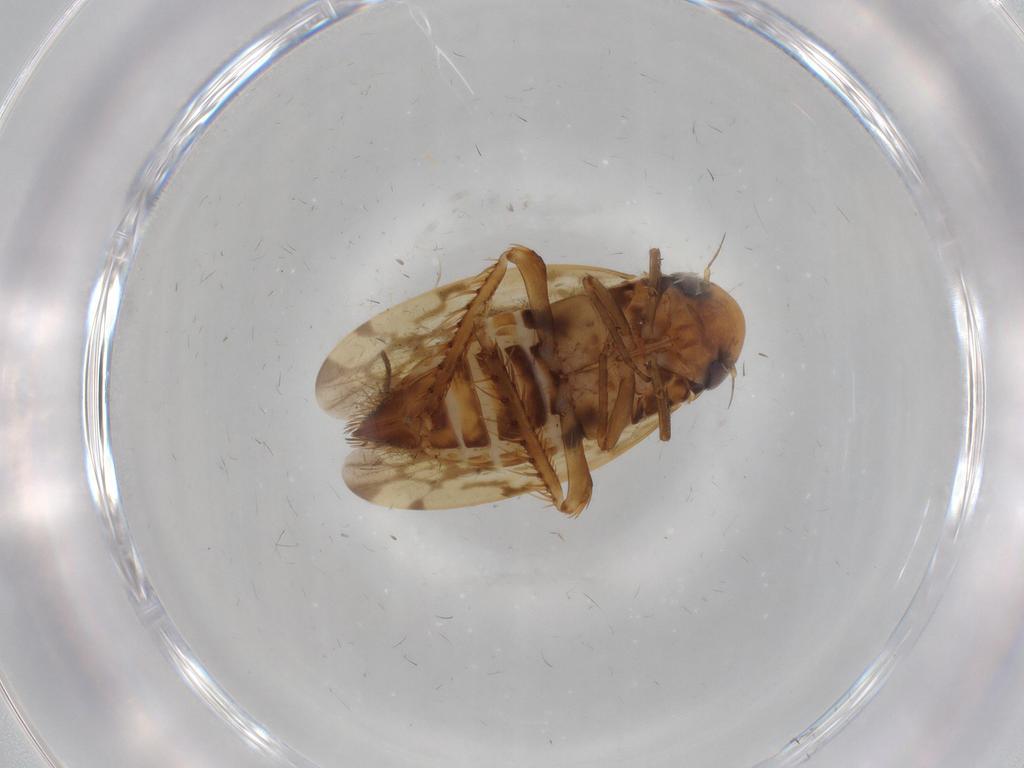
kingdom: Animalia
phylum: Arthropoda
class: Insecta
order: Hemiptera
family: Cicadellidae
